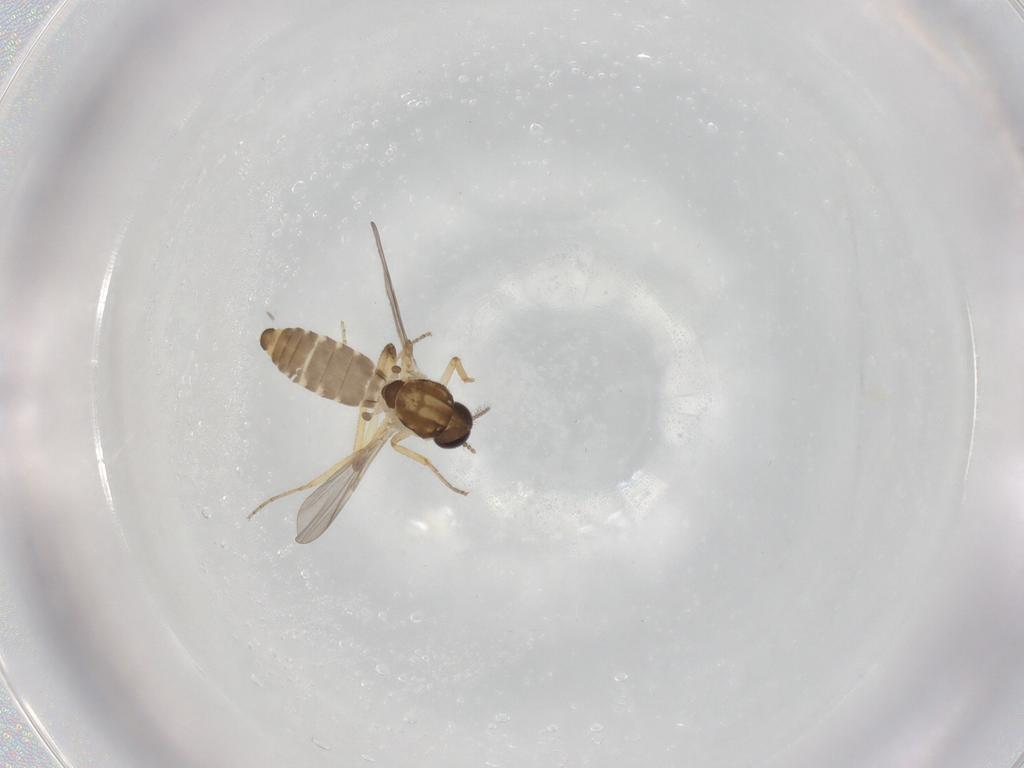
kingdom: Animalia
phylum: Arthropoda
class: Insecta
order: Diptera
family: Psychodidae
